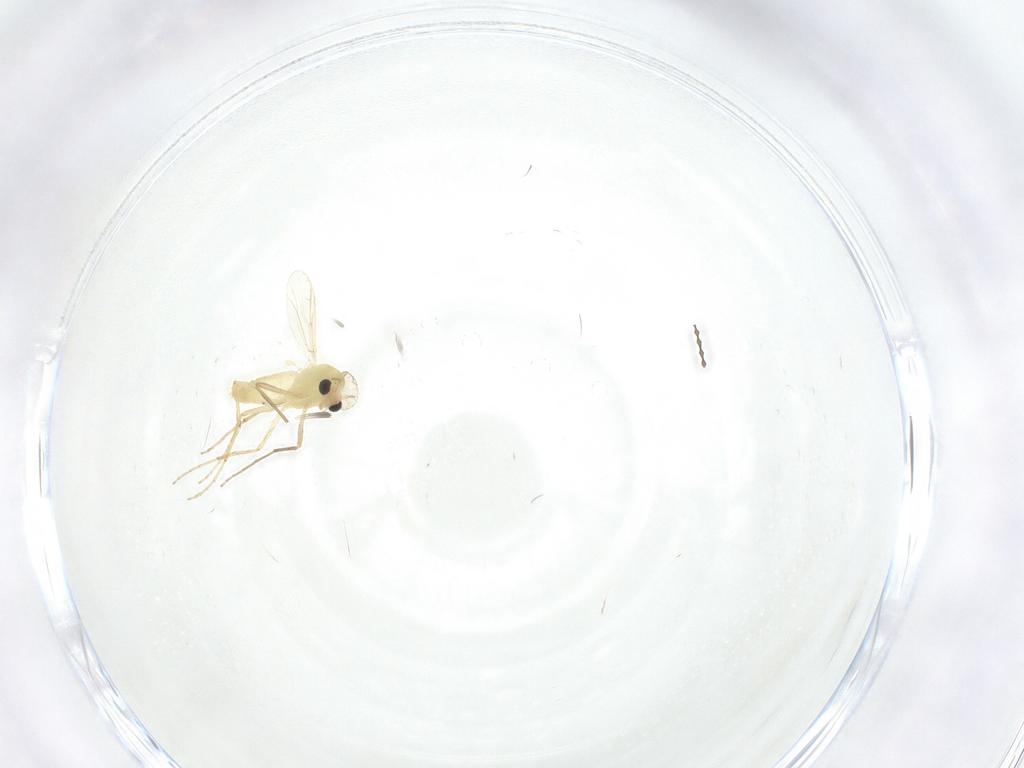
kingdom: Animalia
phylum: Arthropoda
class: Insecta
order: Diptera
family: Chironomidae
